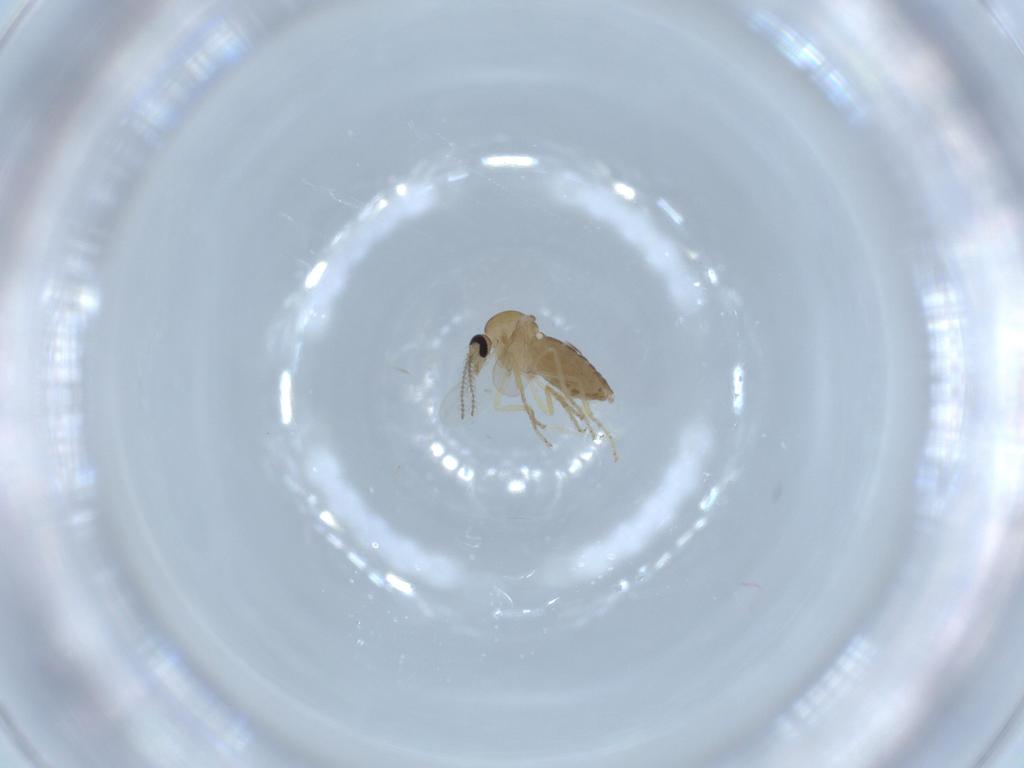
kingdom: Animalia
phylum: Arthropoda
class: Insecta
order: Diptera
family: Ceratopogonidae
